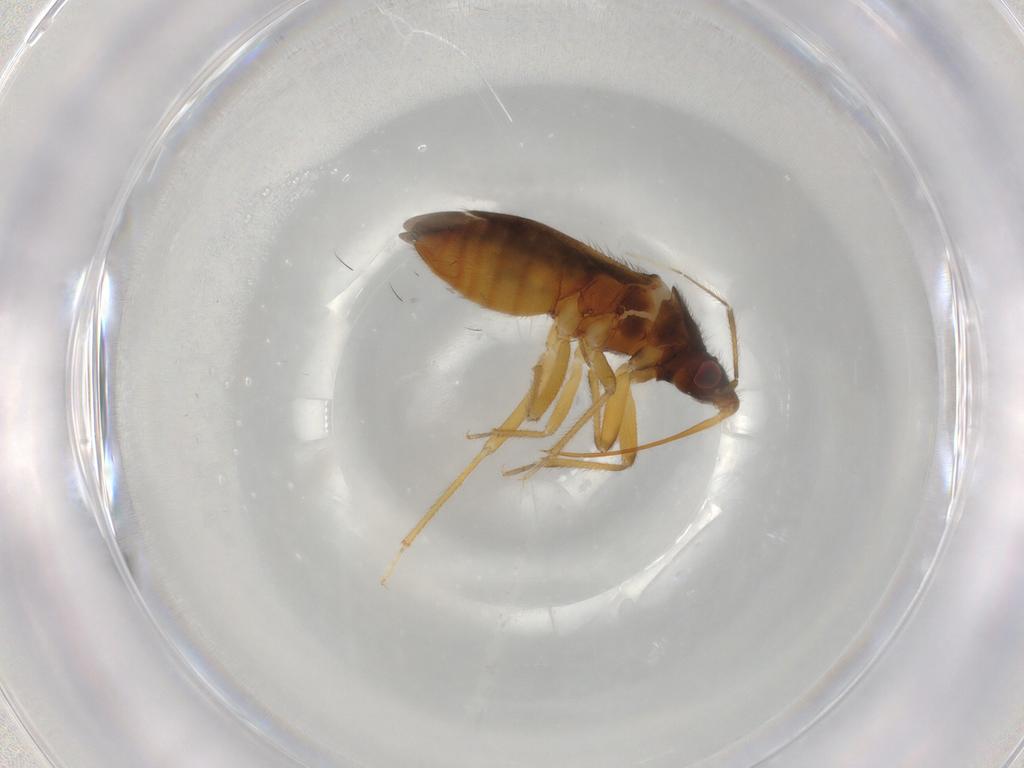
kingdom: Animalia
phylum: Arthropoda
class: Insecta
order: Hemiptera
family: Anthocoridae
